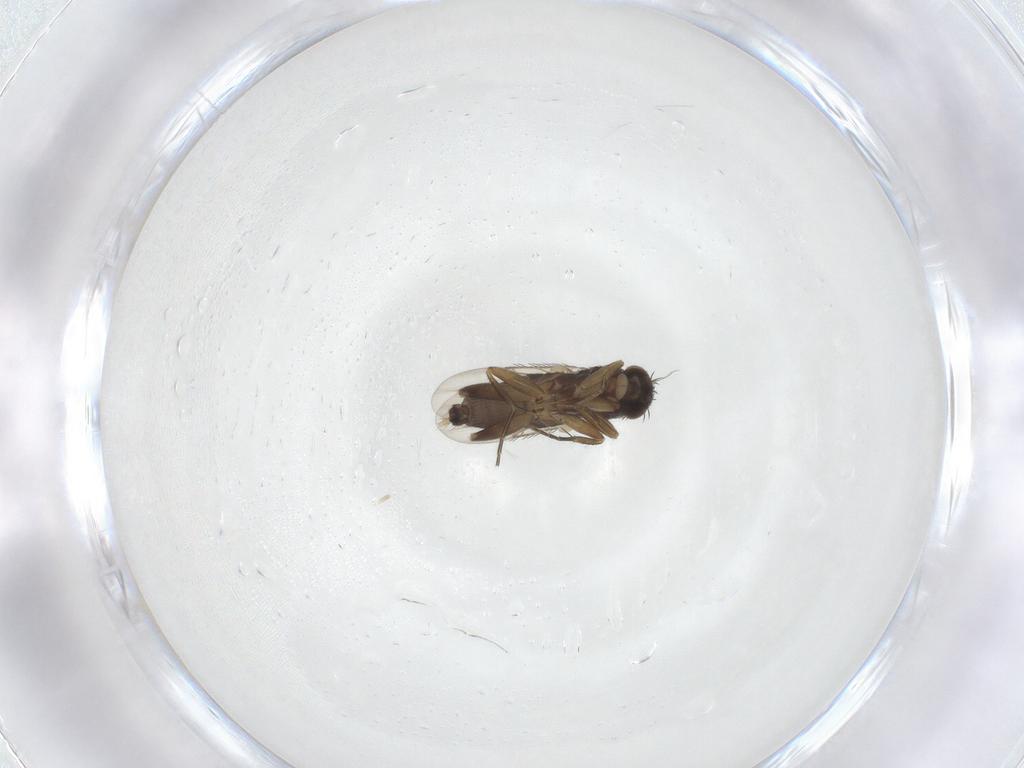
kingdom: Animalia
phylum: Arthropoda
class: Insecta
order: Diptera
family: Phoridae
